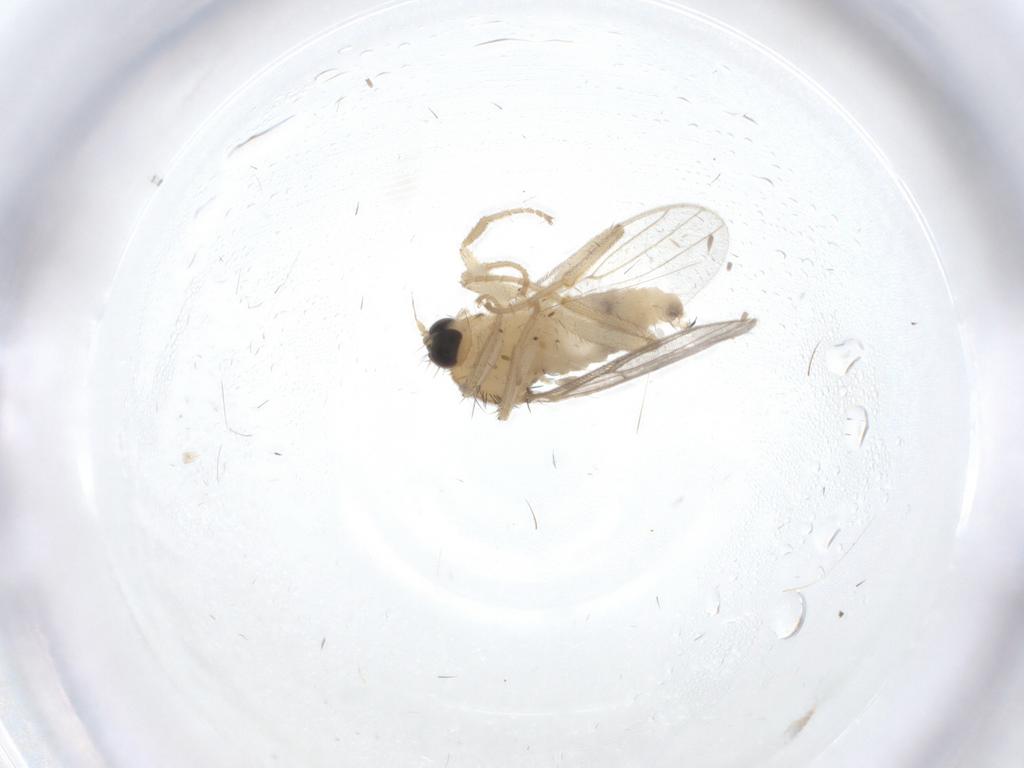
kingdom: Animalia
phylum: Arthropoda
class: Insecta
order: Diptera
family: Hybotidae
